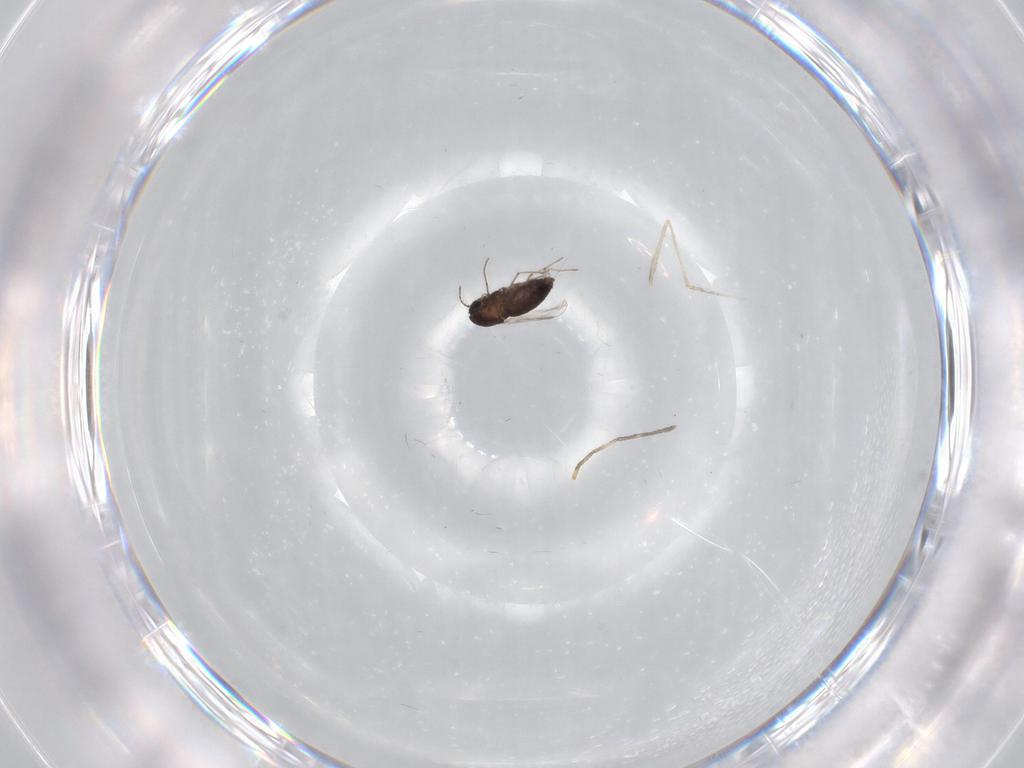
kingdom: Animalia
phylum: Arthropoda
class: Insecta
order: Diptera
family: Chironomidae
